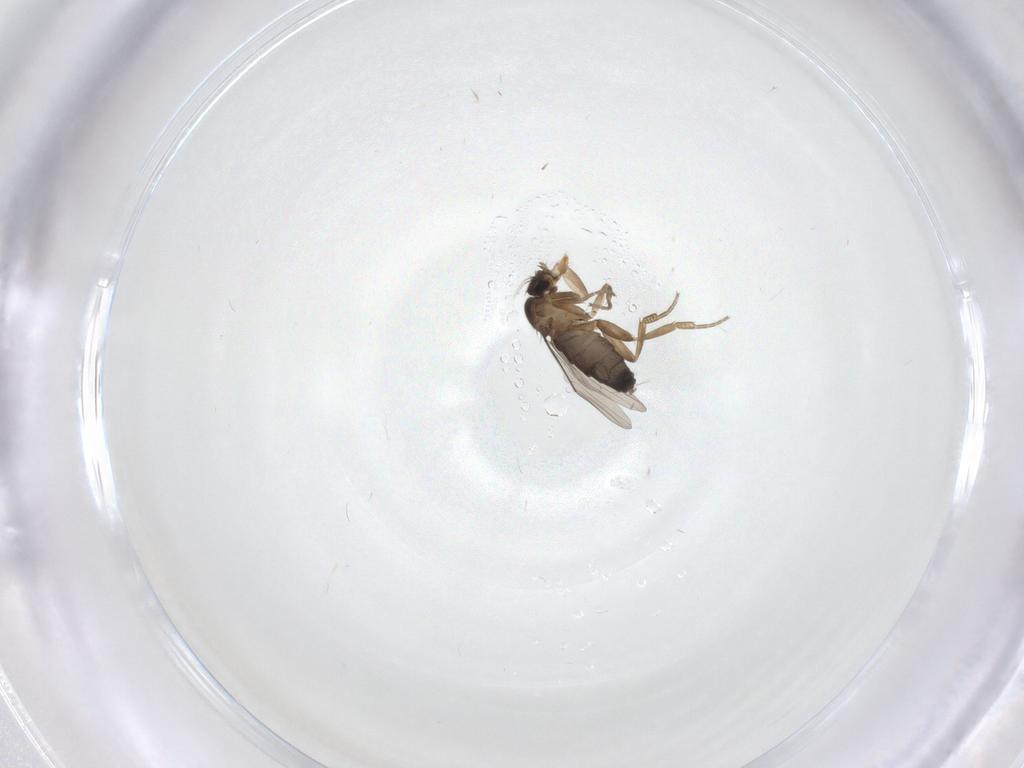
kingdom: Animalia
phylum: Arthropoda
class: Insecta
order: Diptera
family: Phoridae
